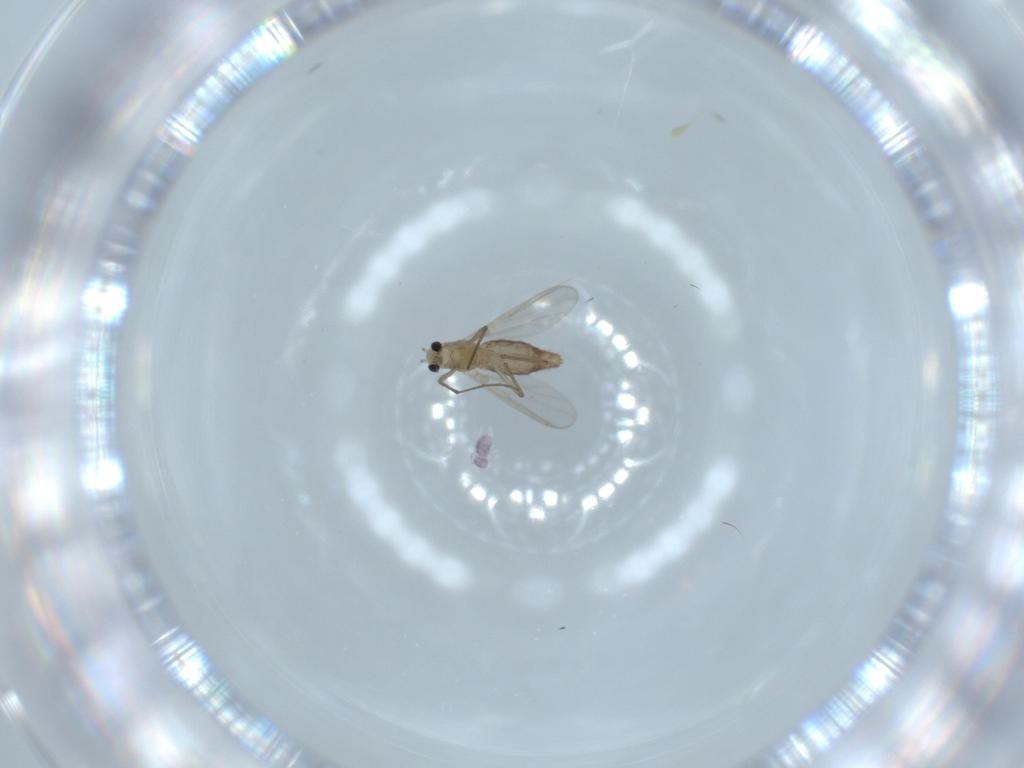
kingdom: Animalia
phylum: Arthropoda
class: Insecta
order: Diptera
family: Chironomidae
